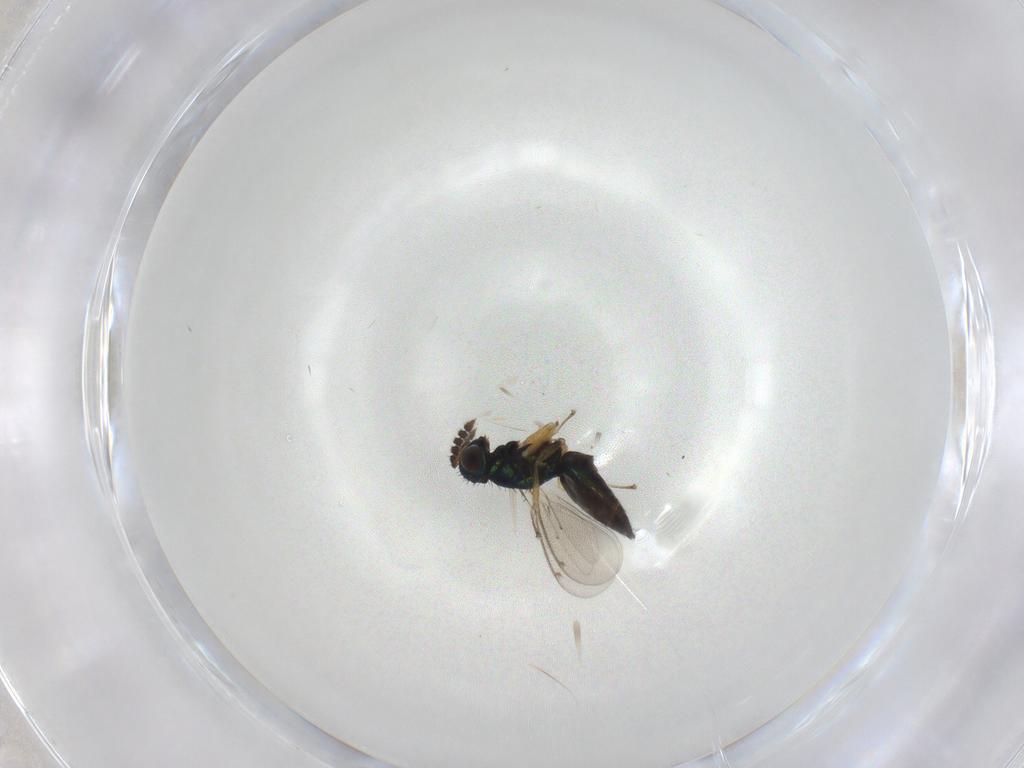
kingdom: Animalia
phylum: Arthropoda
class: Insecta
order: Hymenoptera
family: Eulophidae
